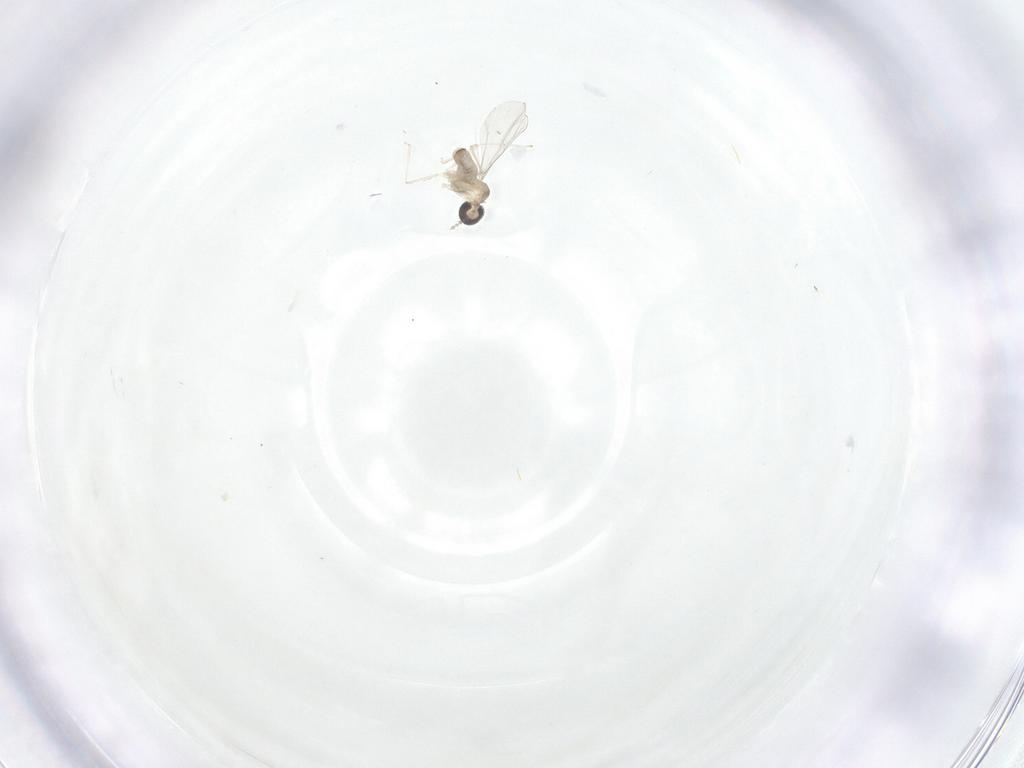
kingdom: Animalia
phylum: Arthropoda
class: Insecta
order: Diptera
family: Cecidomyiidae
